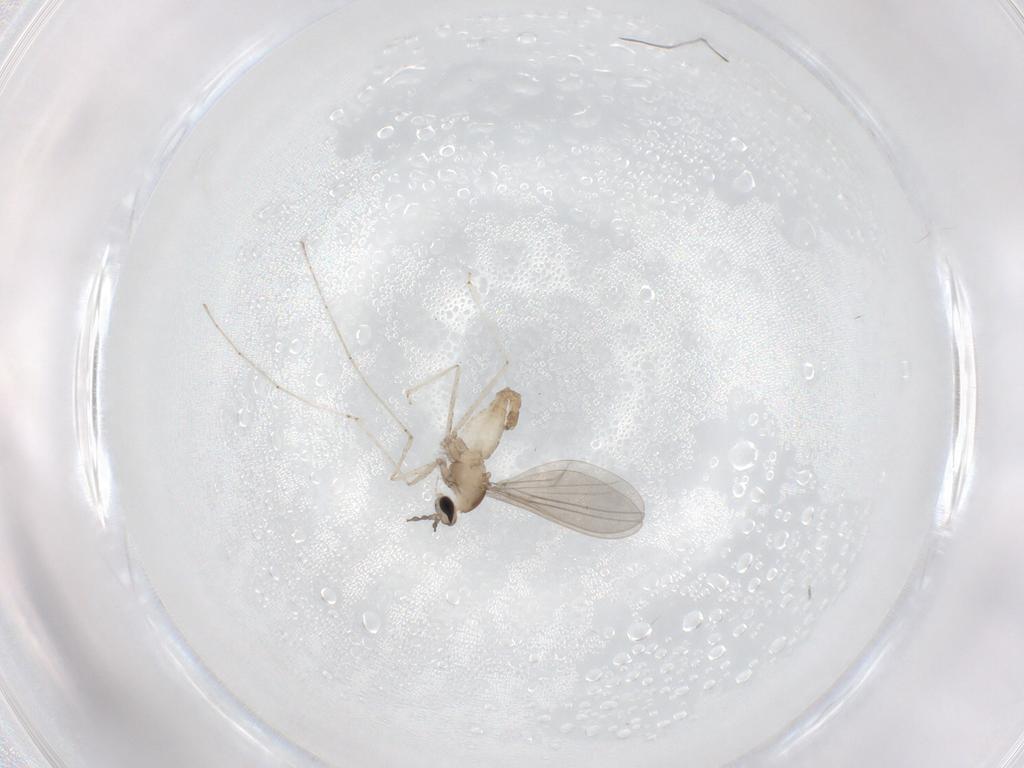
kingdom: Animalia
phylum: Arthropoda
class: Insecta
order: Diptera
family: Cecidomyiidae
